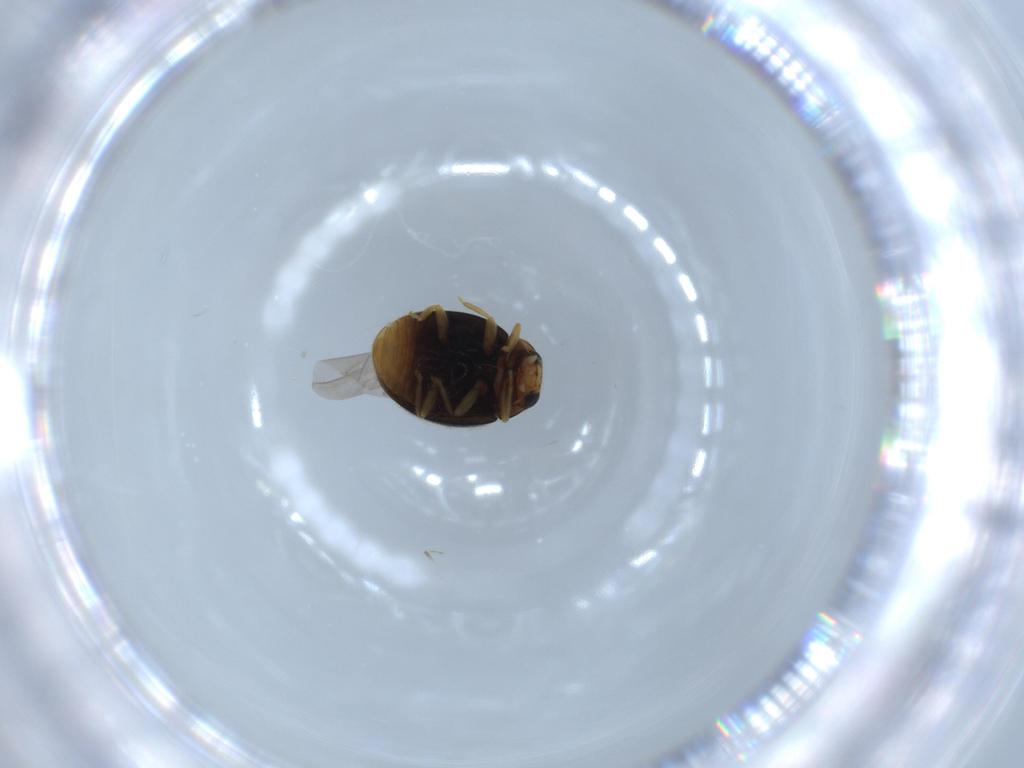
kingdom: Animalia
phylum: Arthropoda
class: Insecta
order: Coleoptera
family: Coccinellidae
